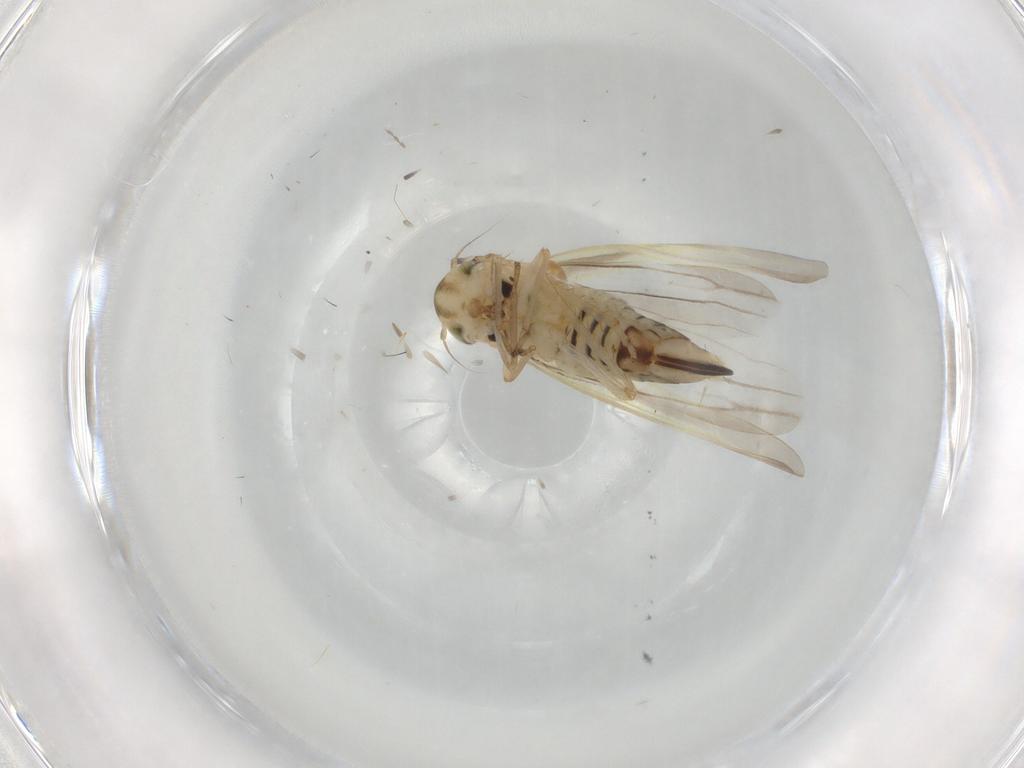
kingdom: Animalia
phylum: Arthropoda
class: Insecta
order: Hemiptera
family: Cicadellidae
